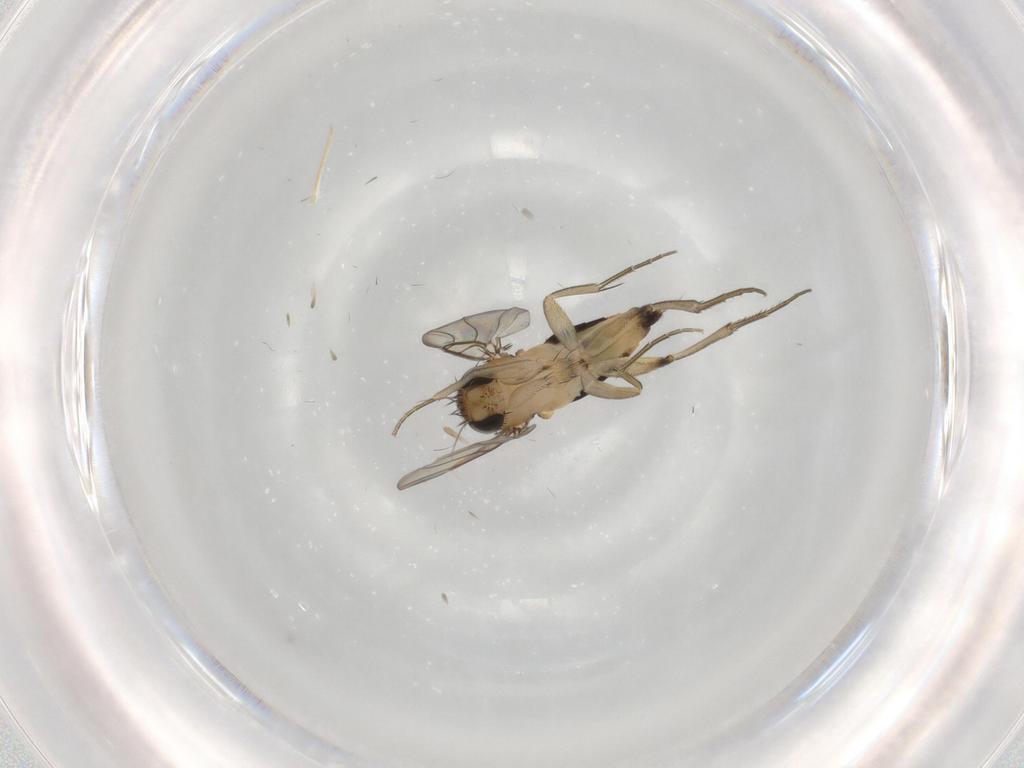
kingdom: Animalia
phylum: Arthropoda
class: Insecta
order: Diptera
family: Phoridae
